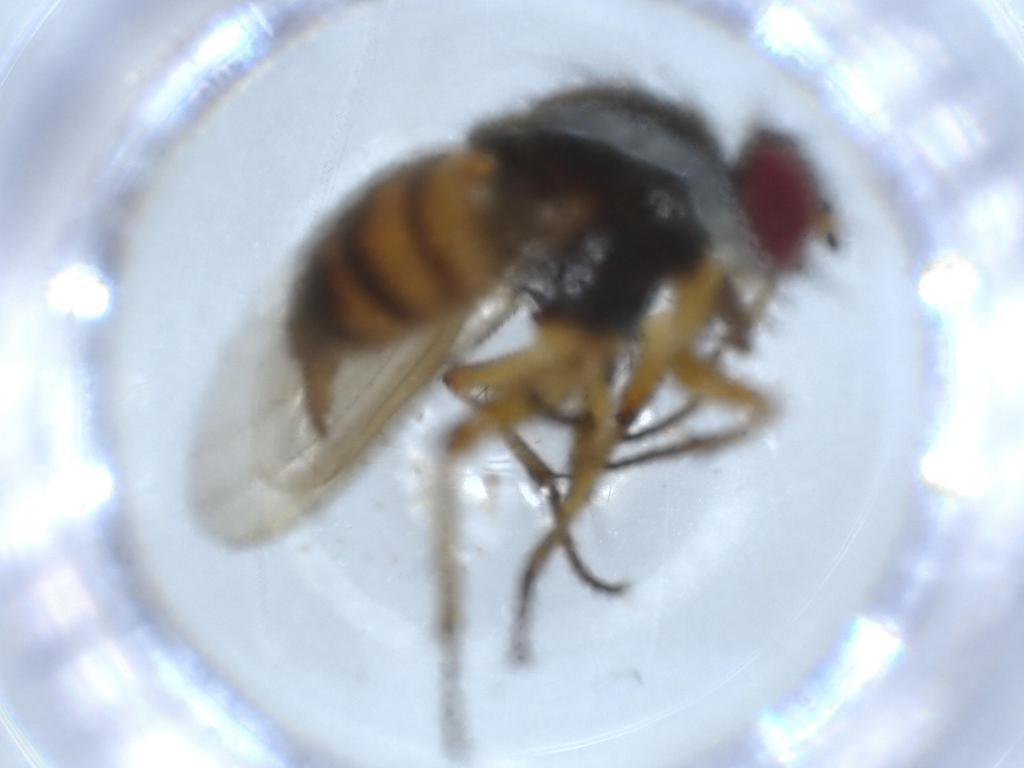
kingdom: Animalia
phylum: Arthropoda
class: Insecta
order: Diptera
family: Muscidae
